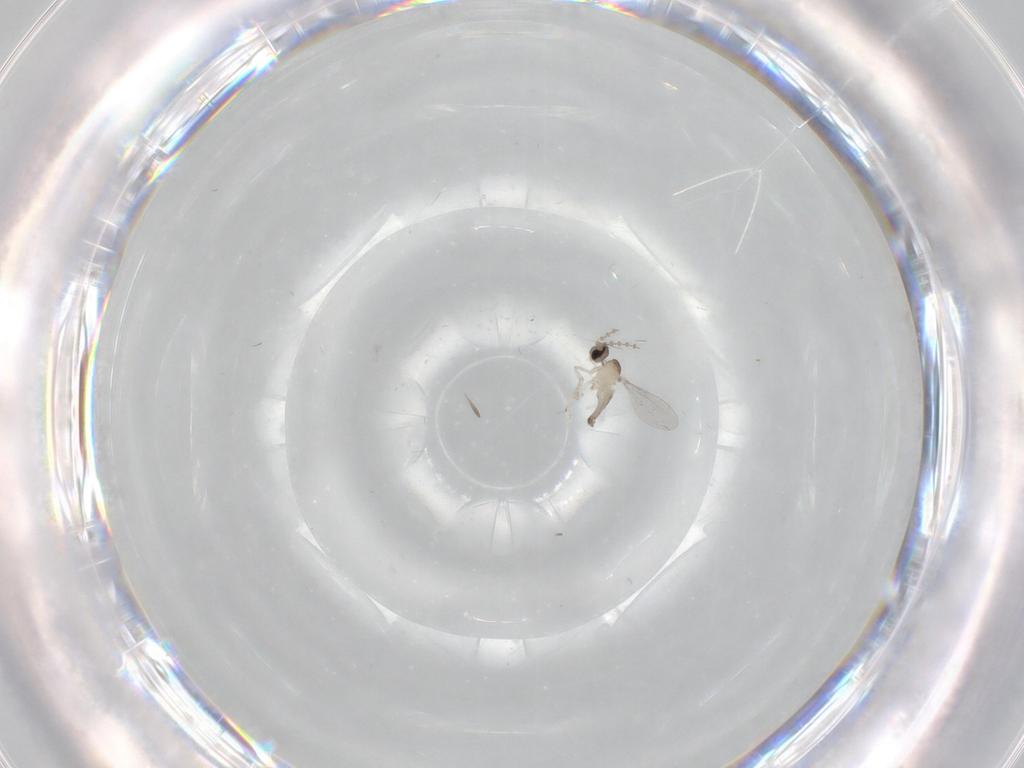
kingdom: Animalia
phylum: Arthropoda
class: Insecta
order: Diptera
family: Cecidomyiidae
